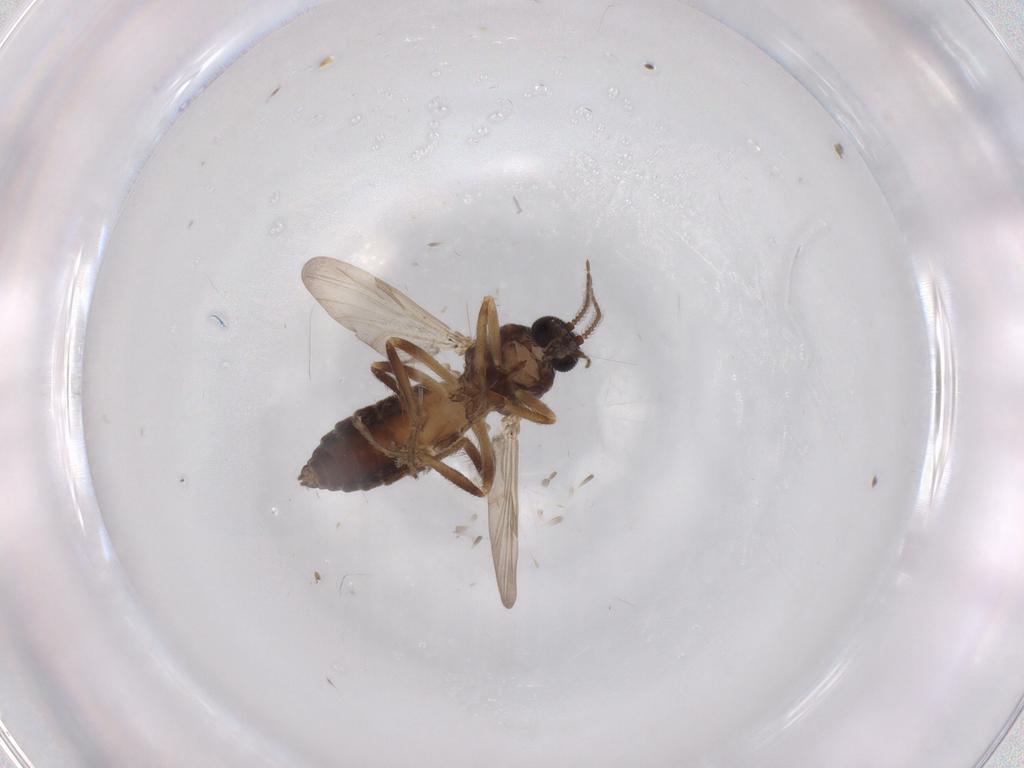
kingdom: Animalia
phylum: Arthropoda
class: Insecta
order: Diptera
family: Ceratopogonidae
